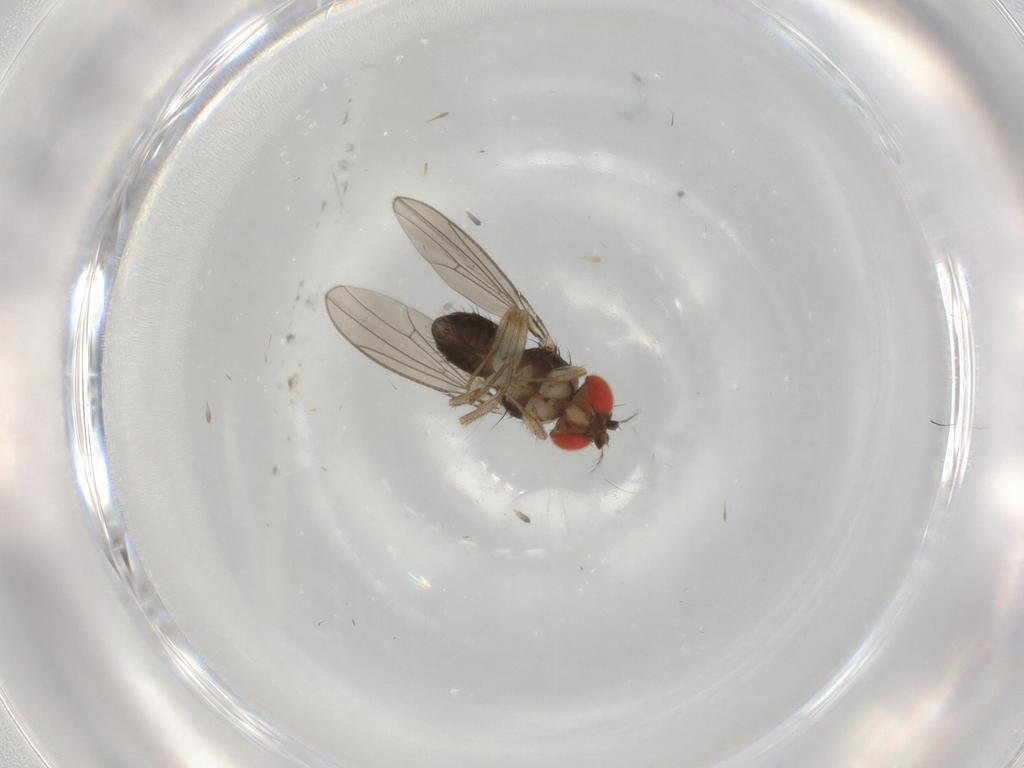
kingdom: Animalia
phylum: Arthropoda
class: Insecta
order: Diptera
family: Drosophilidae
